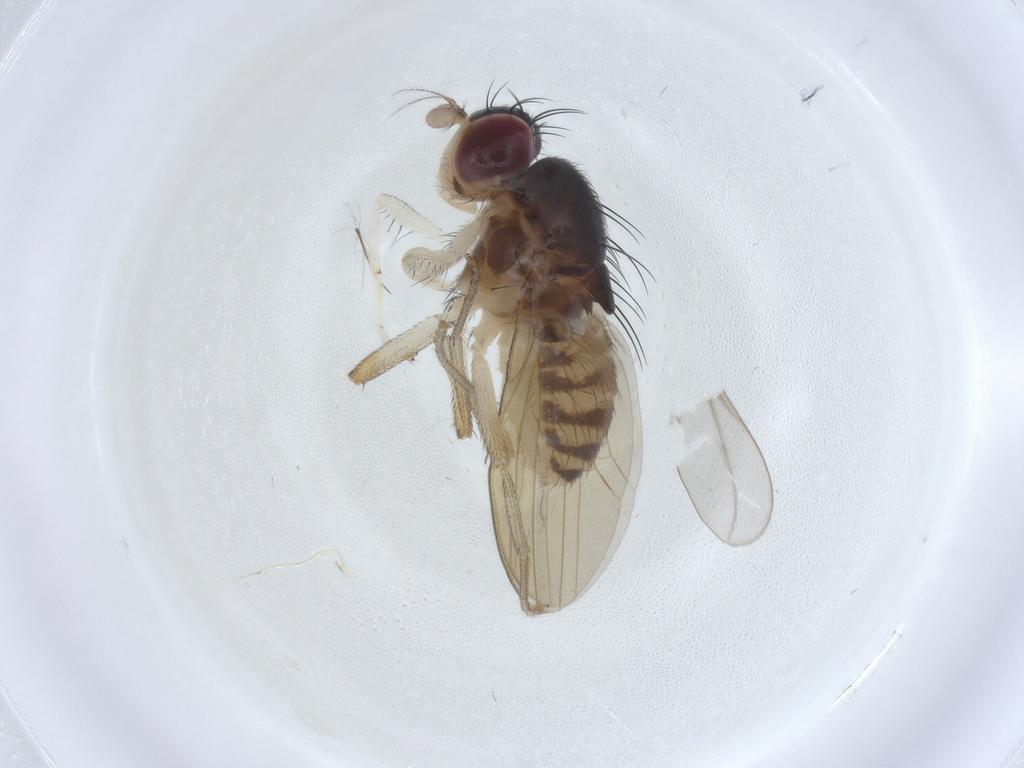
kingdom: Animalia
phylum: Arthropoda
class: Insecta
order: Diptera
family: Lauxaniidae
